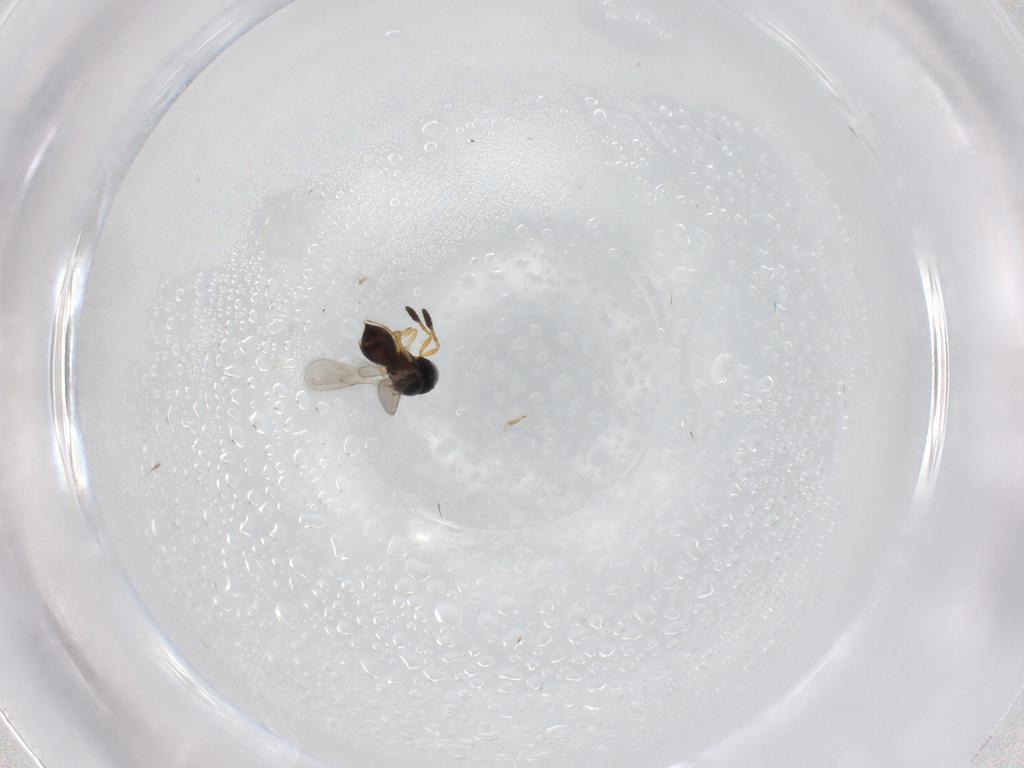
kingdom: Animalia
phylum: Arthropoda
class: Insecta
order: Hymenoptera
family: Scelionidae
